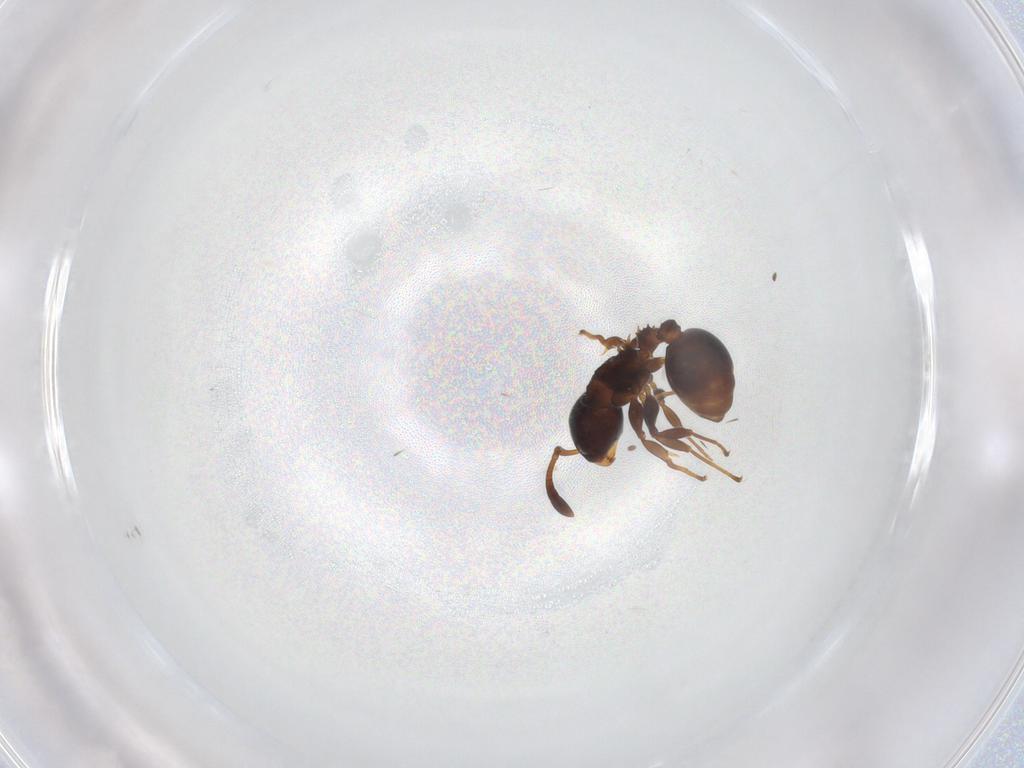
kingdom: Animalia
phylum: Arthropoda
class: Insecta
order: Hymenoptera
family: Formicidae
